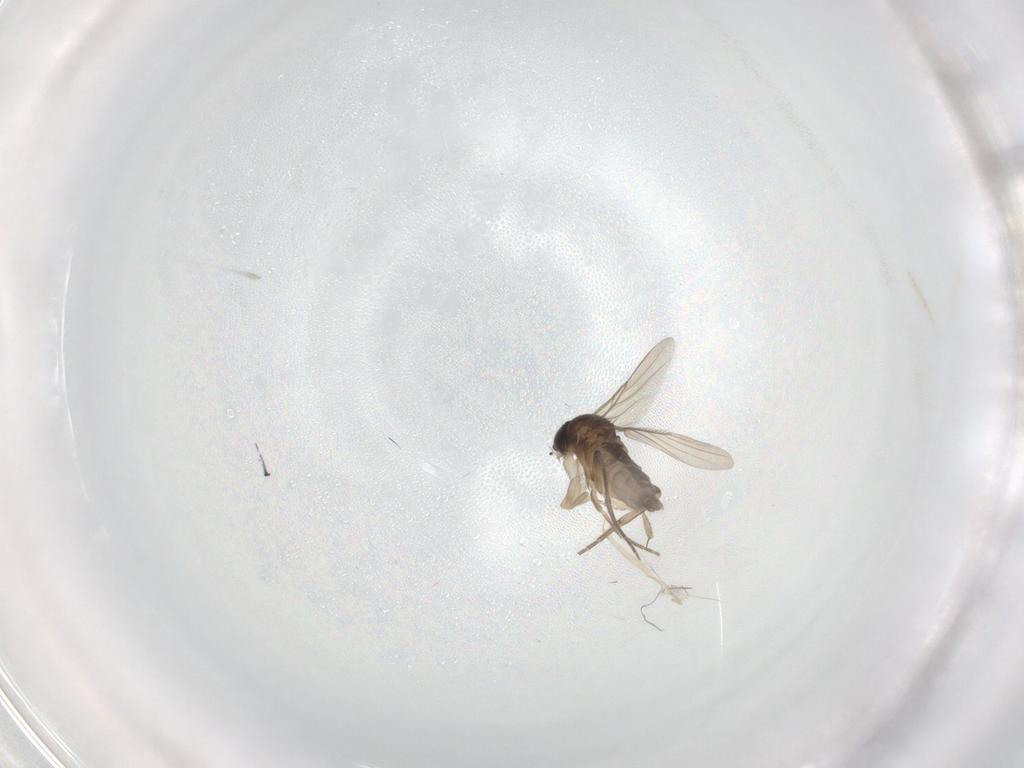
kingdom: Animalia
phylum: Arthropoda
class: Insecta
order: Diptera
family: Phoridae
